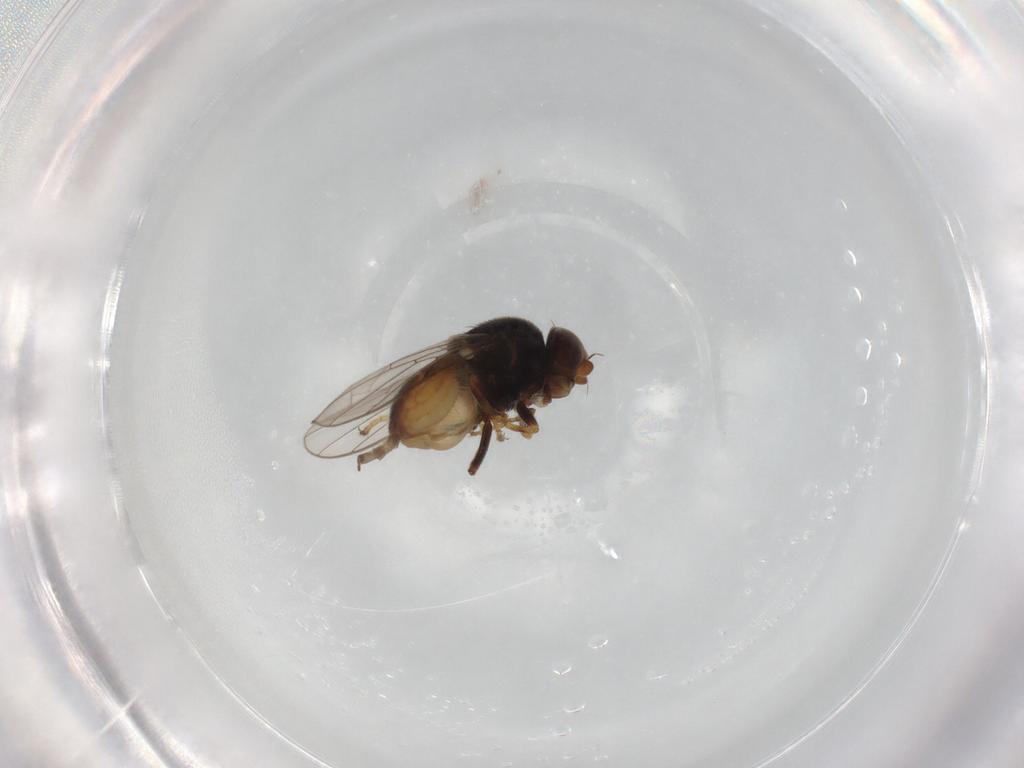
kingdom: Animalia
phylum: Arthropoda
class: Insecta
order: Diptera
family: Chloropidae
